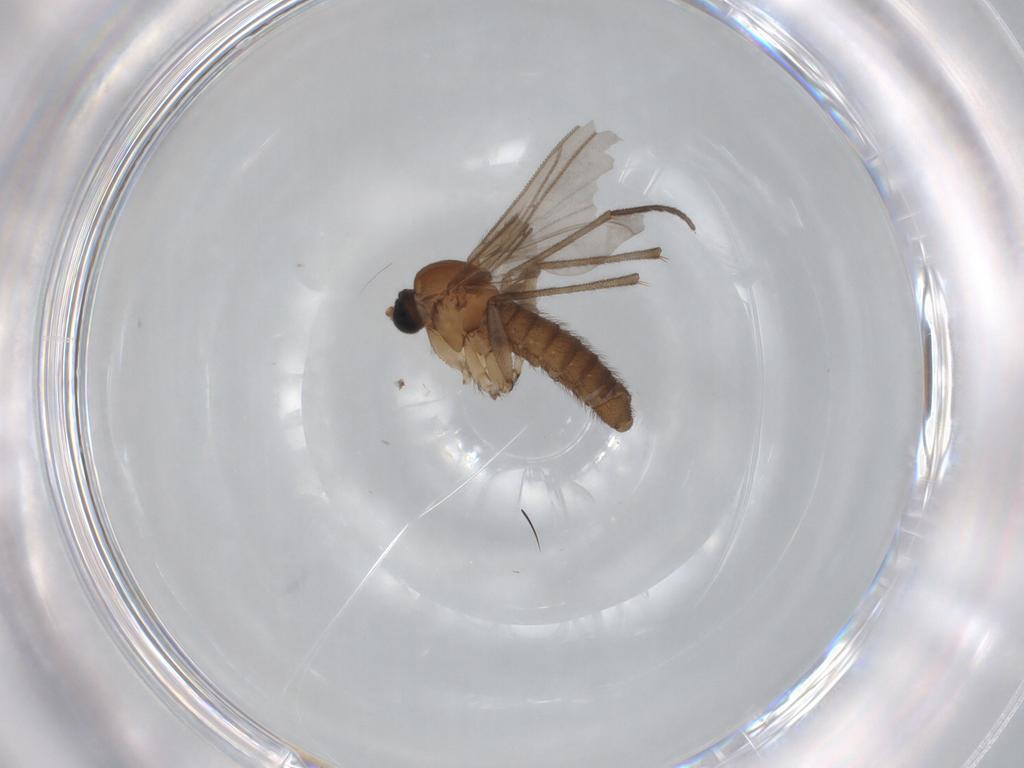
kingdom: Animalia
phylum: Arthropoda
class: Insecta
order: Diptera
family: Sciaridae
